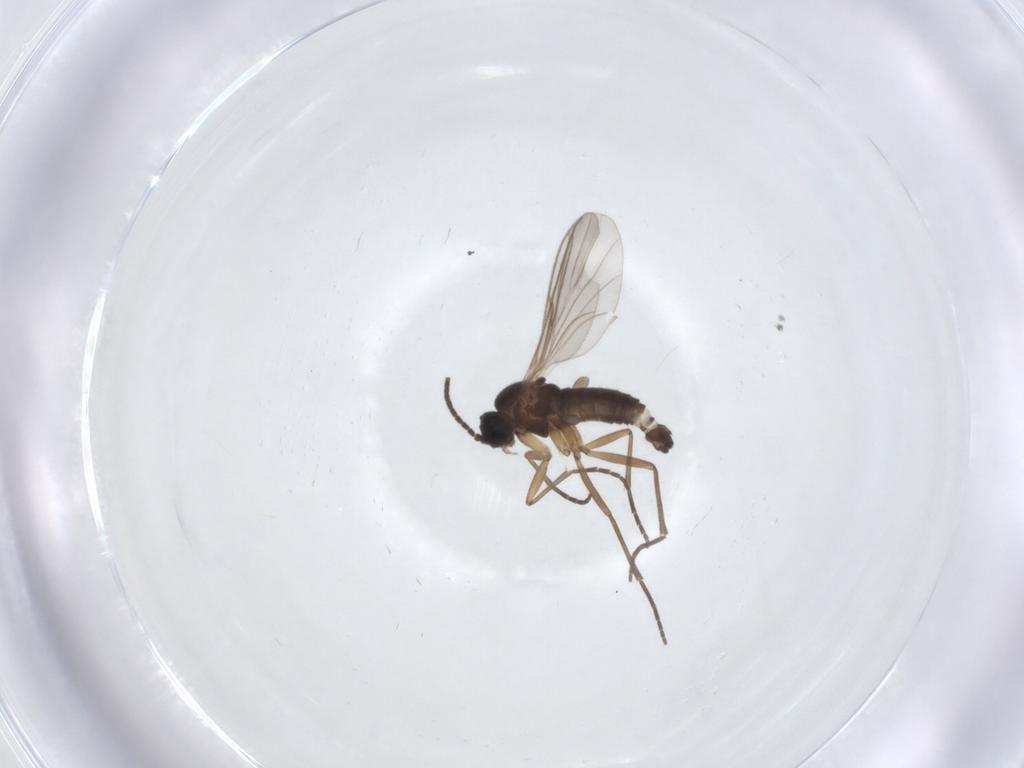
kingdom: Animalia
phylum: Arthropoda
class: Insecta
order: Diptera
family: Sciaridae
